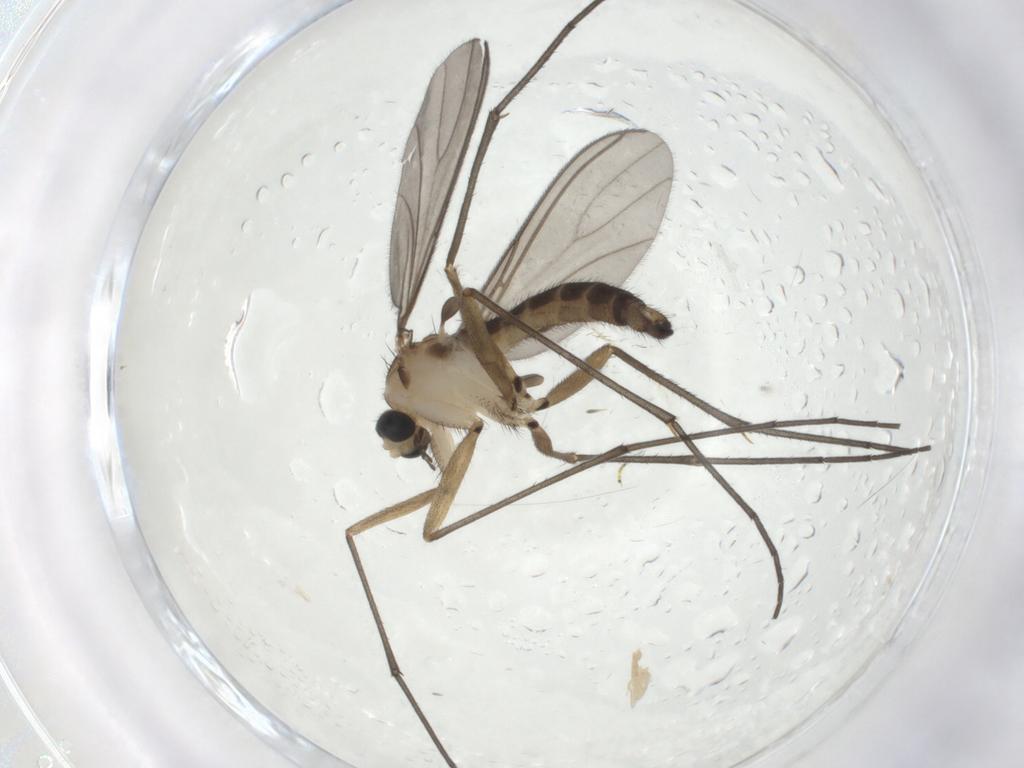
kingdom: Animalia
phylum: Arthropoda
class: Insecta
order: Diptera
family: Sciaridae
